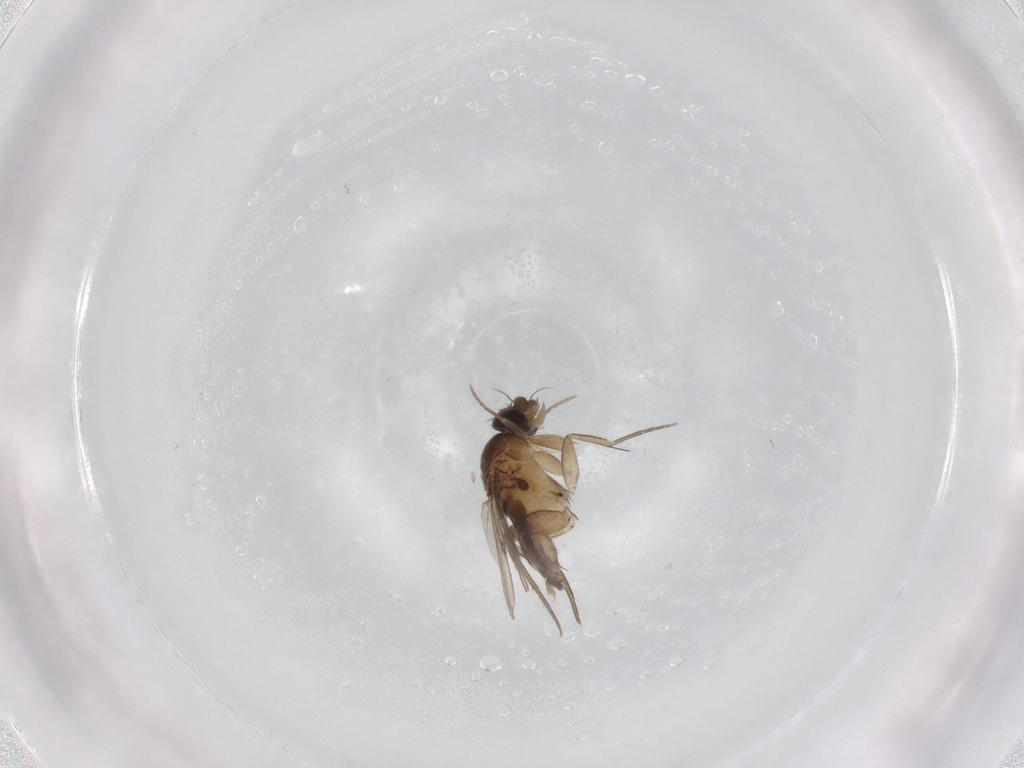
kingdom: Animalia
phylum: Arthropoda
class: Insecta
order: Diptera
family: Phoridae
